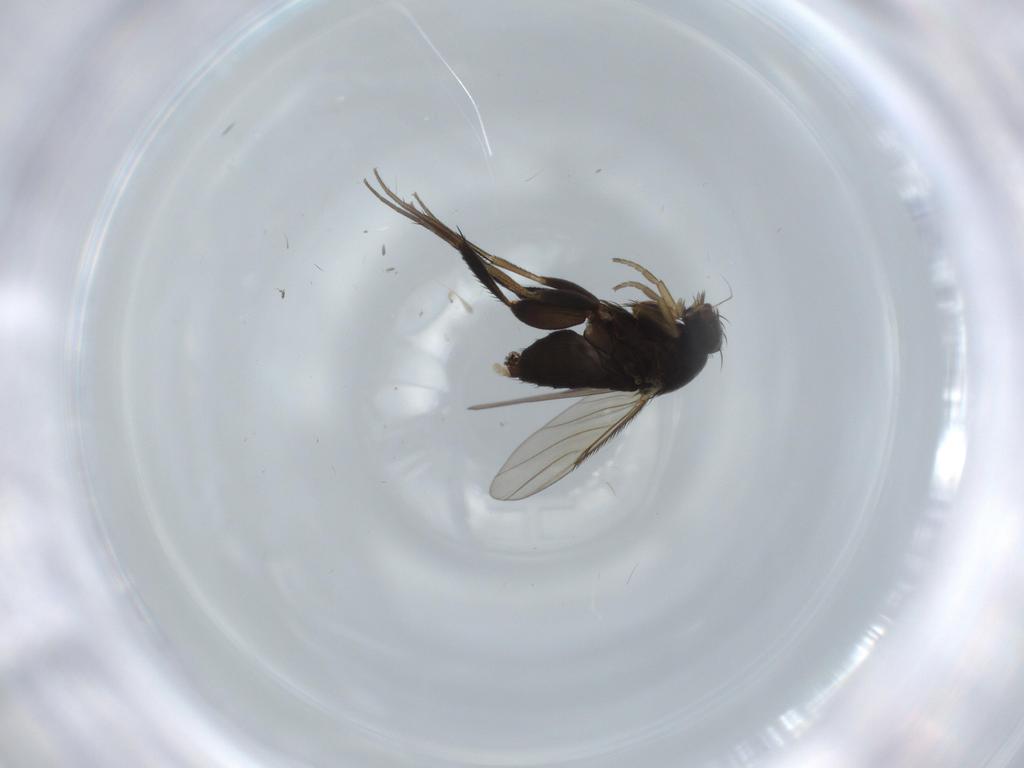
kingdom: Animalia
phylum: Arthropoda
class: Insecta
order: Diptera
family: Phoridae
